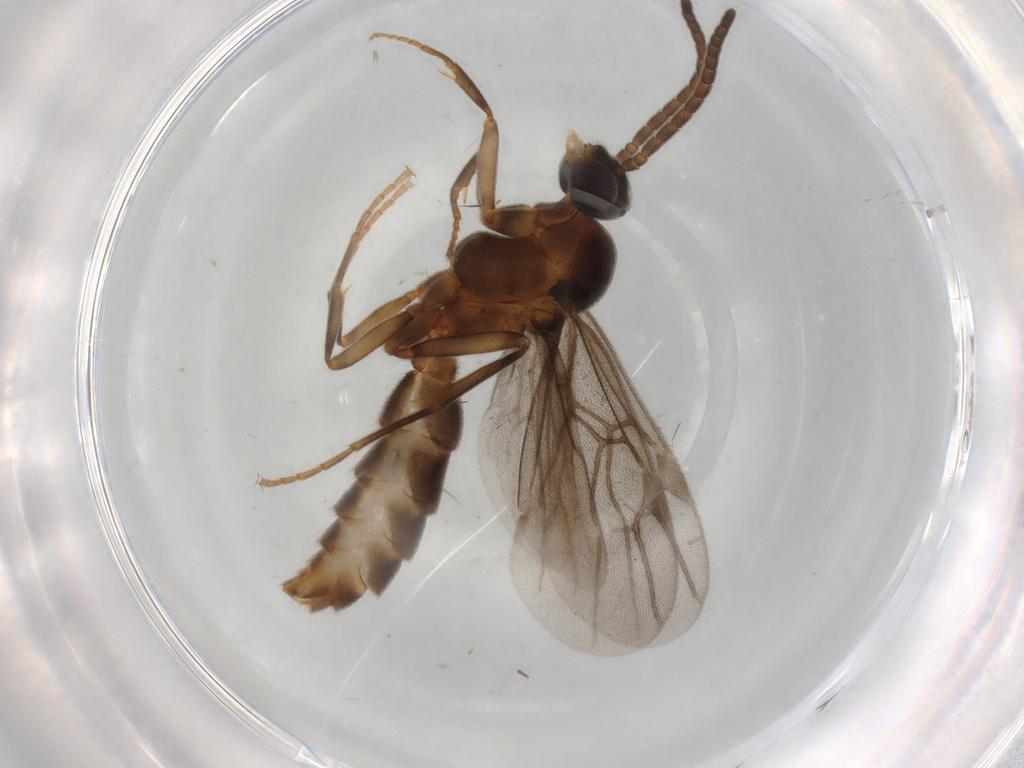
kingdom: Animalia
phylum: Arthropoda
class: Insecta
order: Hymenoptera
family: Formicidae
